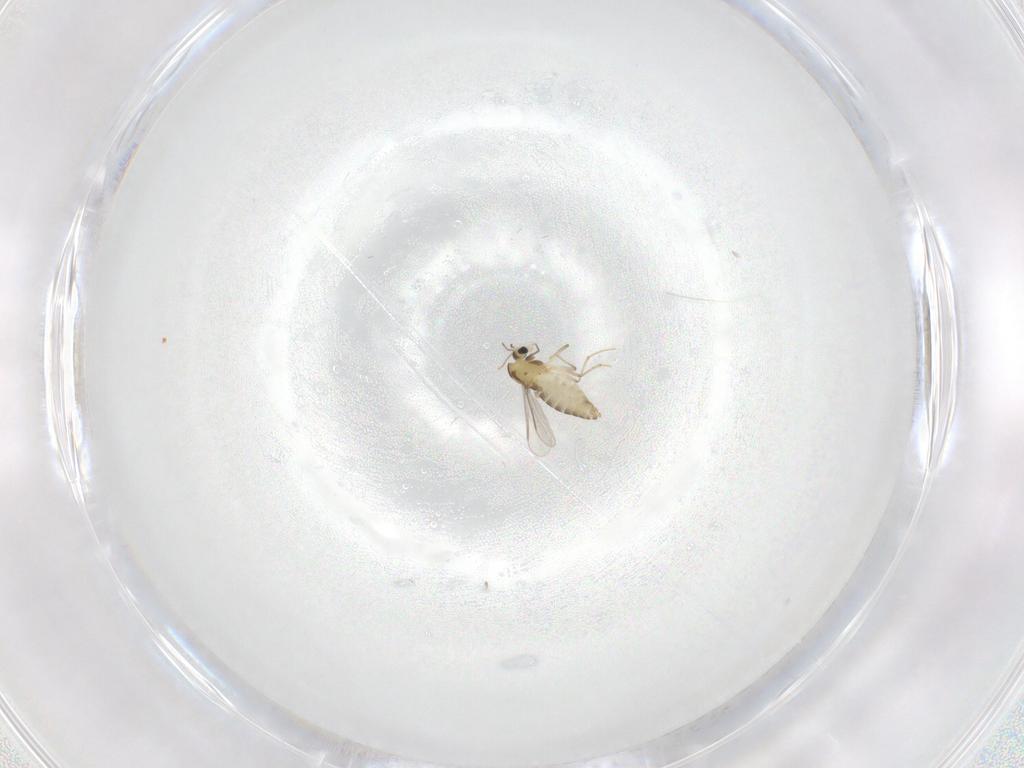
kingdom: Animalia
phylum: Arthropoda
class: Insecta
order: Diptera
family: Chironomidae
